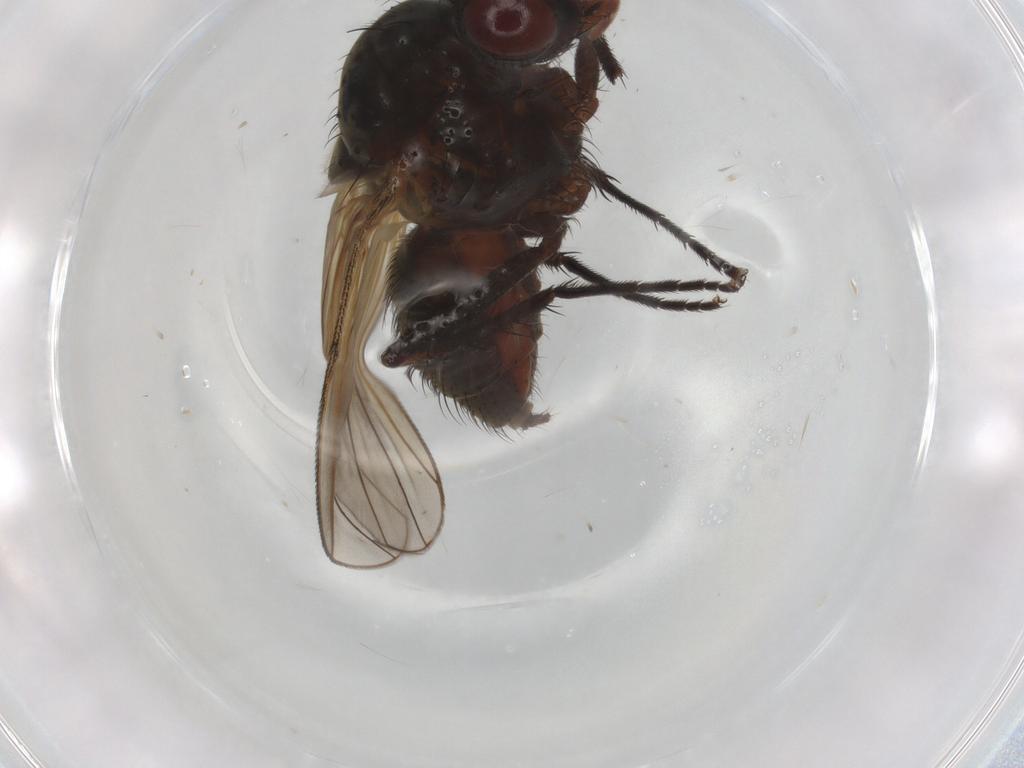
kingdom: Animalia
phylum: Arthropoda
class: Insecta
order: Diptera
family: Anthomyiidae
